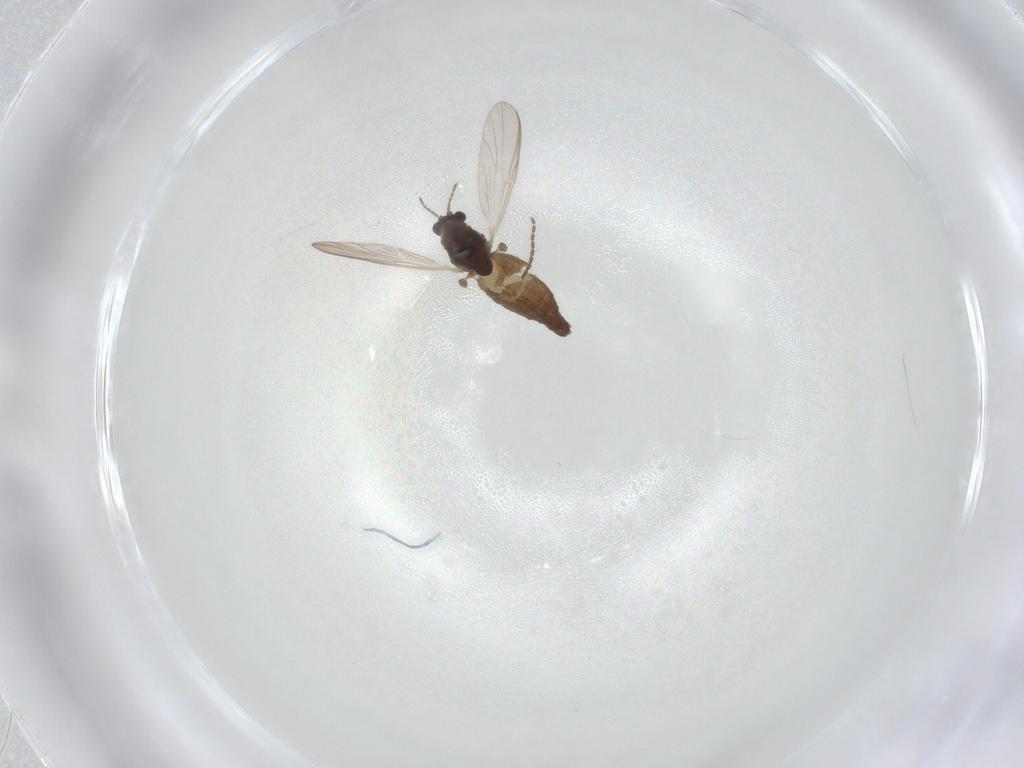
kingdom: Animalia
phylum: Arthropoda
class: Insecta
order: Diptera
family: Chironomidae
